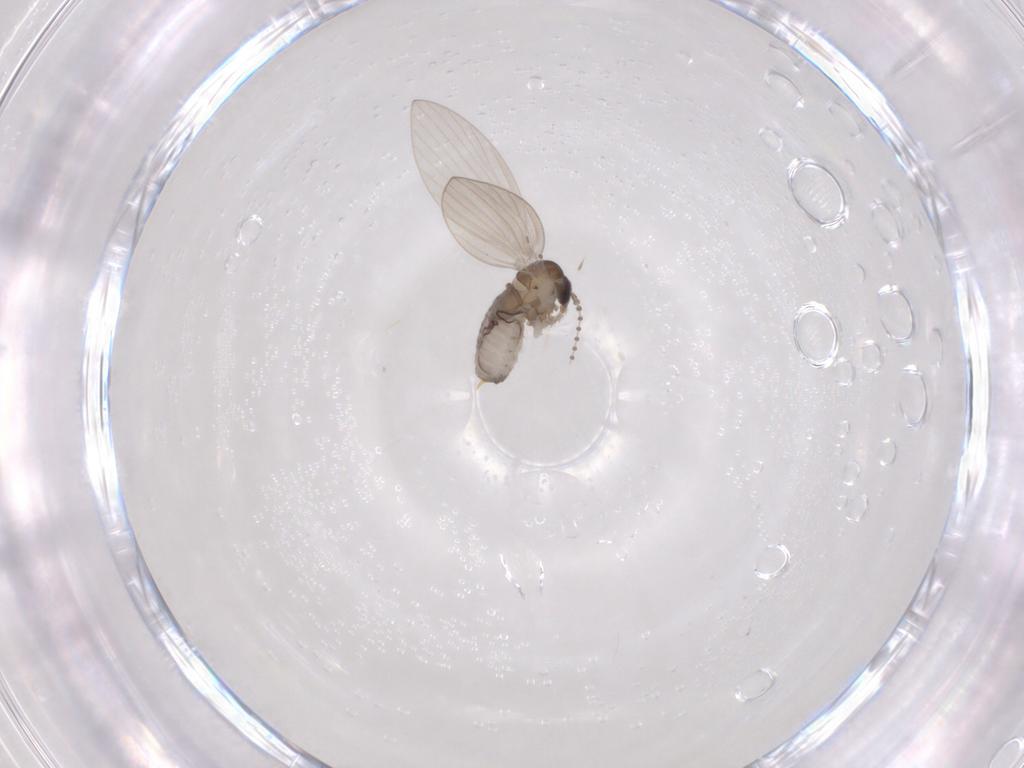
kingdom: Animalia
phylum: Arthropoda
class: Insecta
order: Diptera
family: Psychodidae
